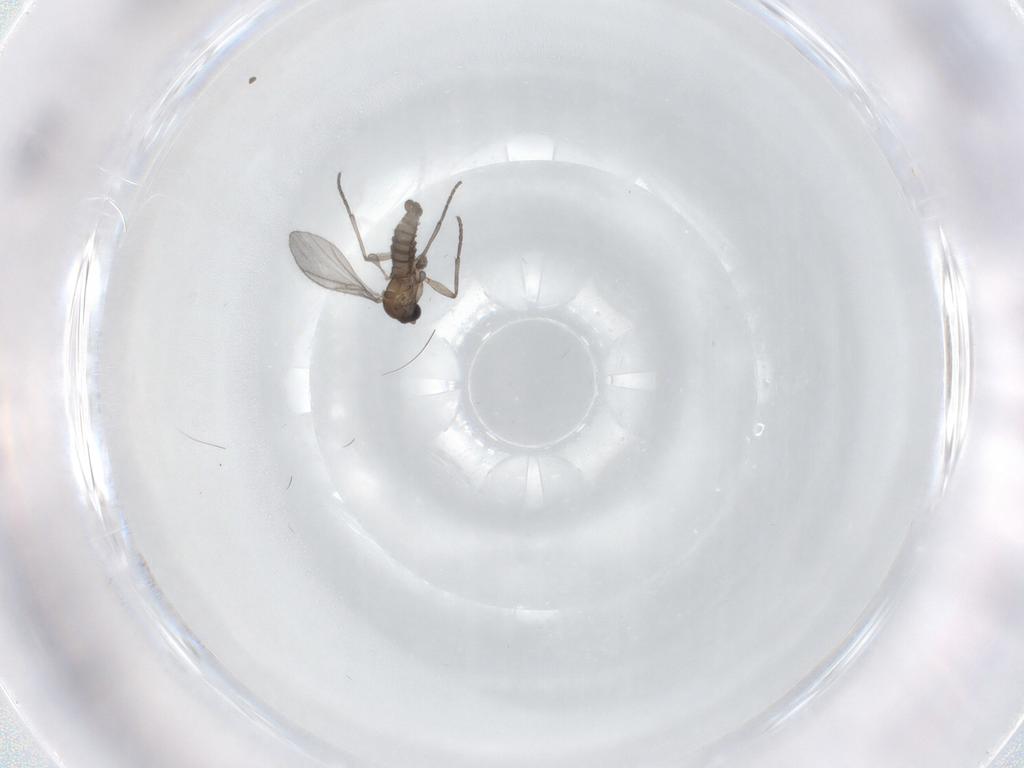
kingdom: Animalia
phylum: Arthropoda
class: Insecta
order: Diptera
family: Sciaridae
